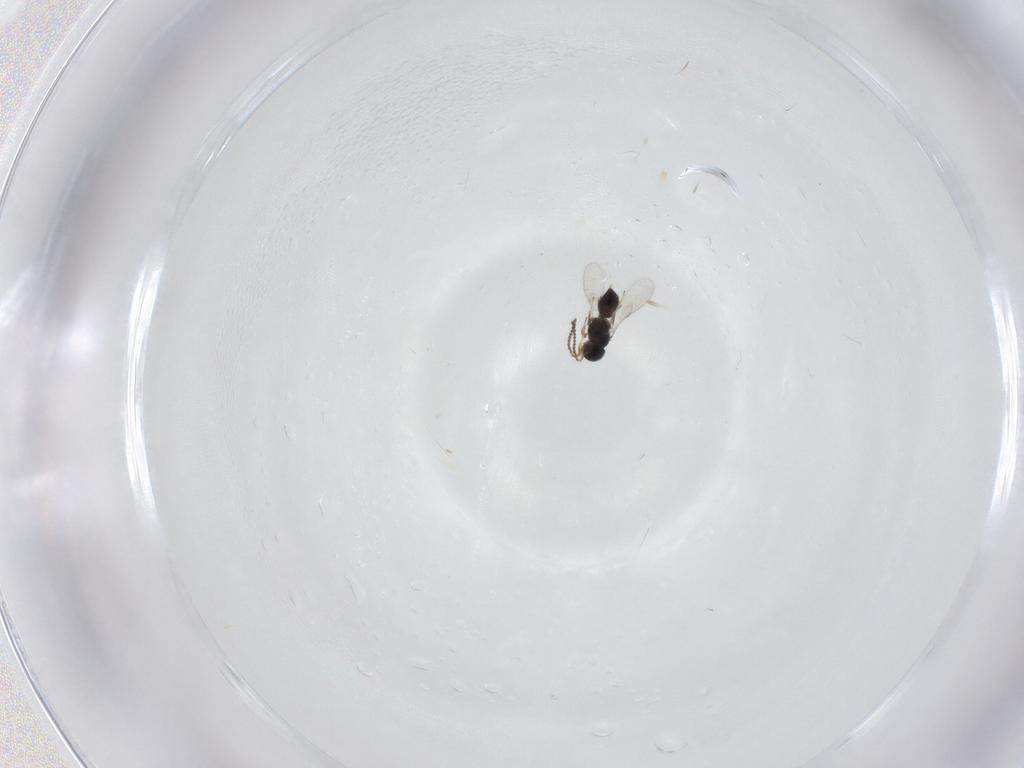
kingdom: Animalia
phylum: Arthropoda
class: Insecta
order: Hymenoptera
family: Scelionidae
